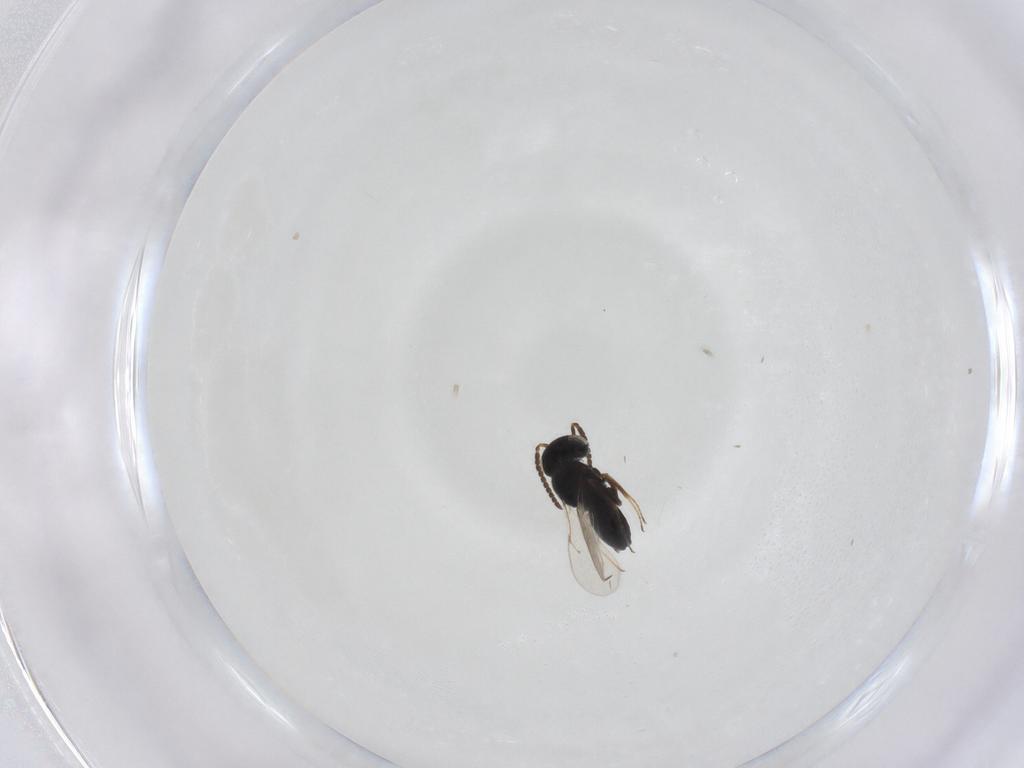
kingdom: Animalia
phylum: Arthropoda
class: Insecta
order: Hymenoptera
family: Scelionidae
